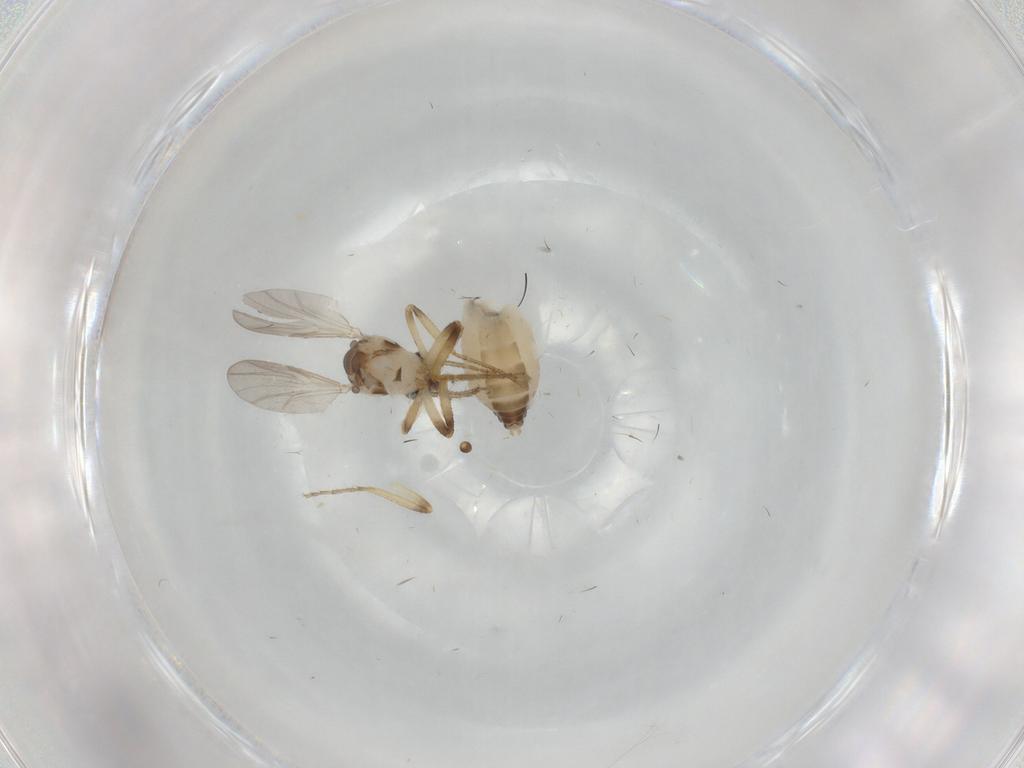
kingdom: Animalia
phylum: Arthropoda
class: Insecta
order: Diptera
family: Ceratopogonidae
